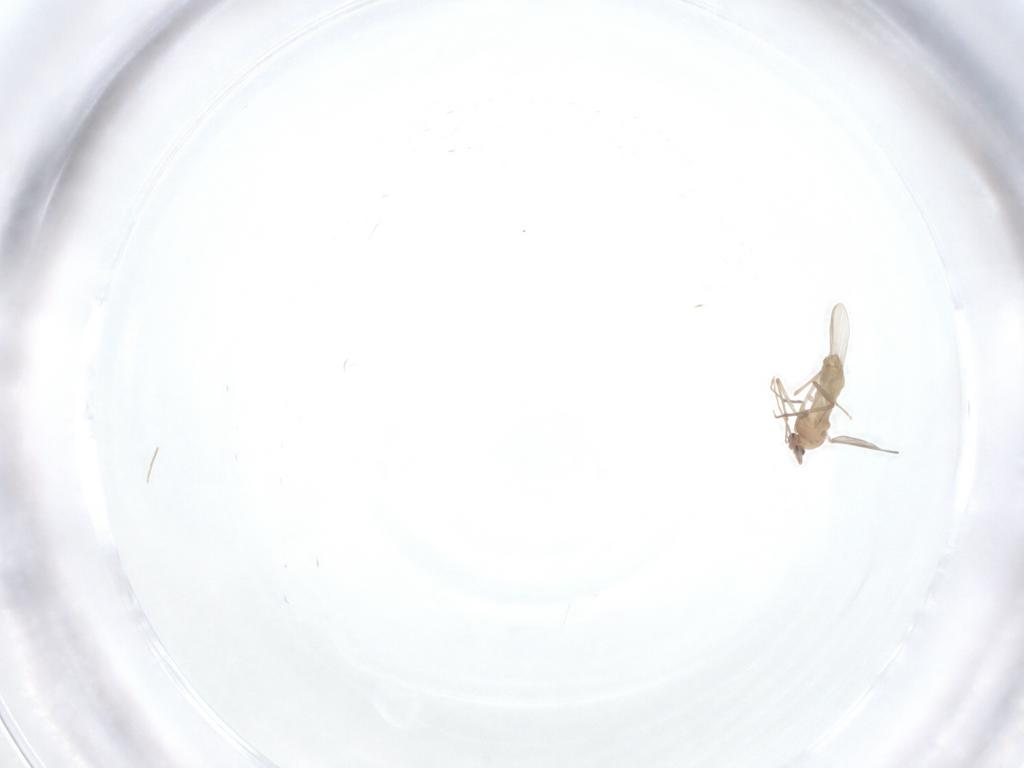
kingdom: Animalia
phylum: Arthropoda
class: Insecta
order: Diptera
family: Chironomidae
